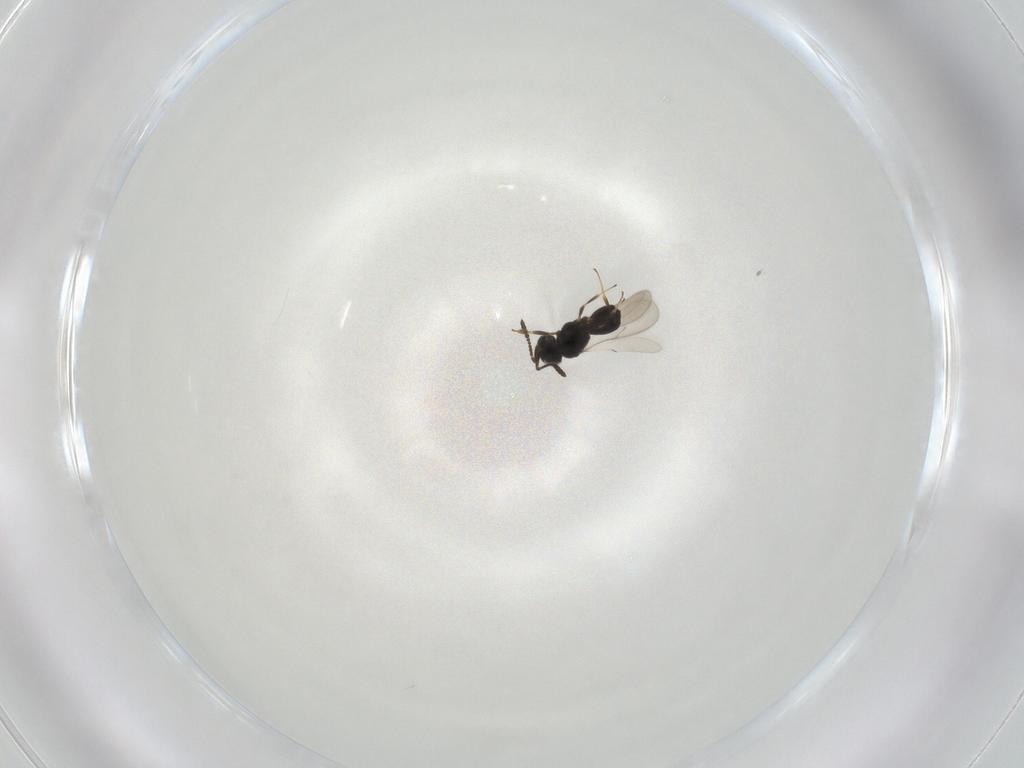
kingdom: Animalia
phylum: Arthropoda
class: Insecta
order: Hymenoptera
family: Scelionidae
